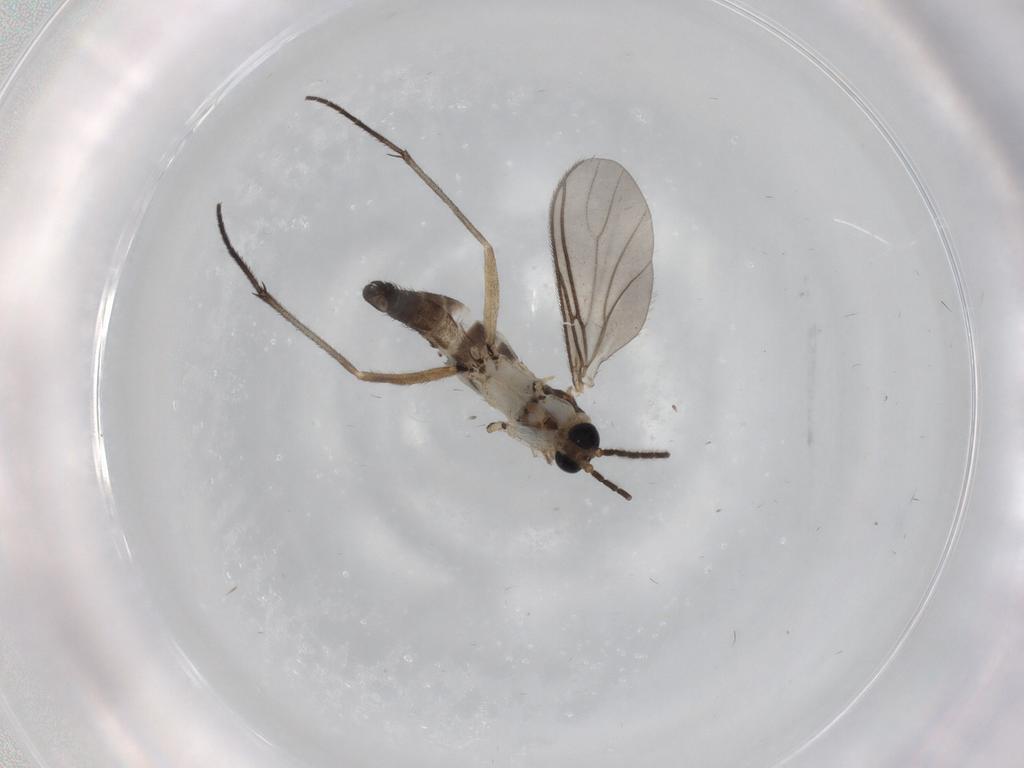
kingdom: Animalia
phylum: Arthropoda
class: Insecta
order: Diptera
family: Sciaridae
